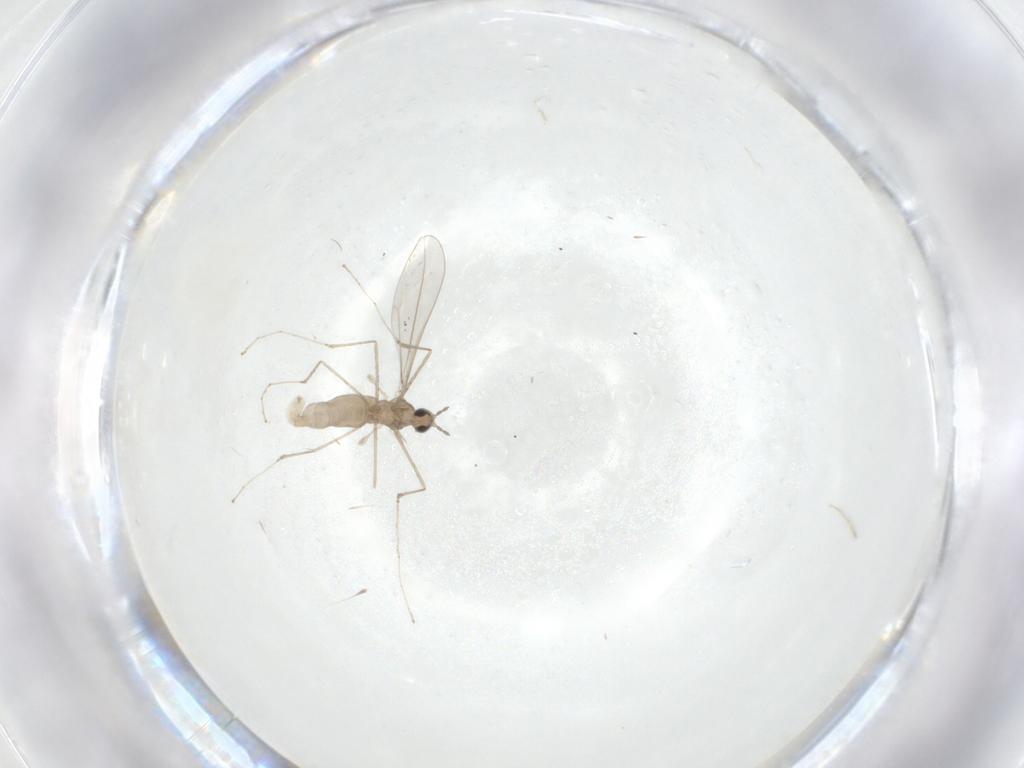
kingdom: Animalia
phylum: Arthropoda
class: Insecta
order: Diptera
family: Cecidomyiidae
